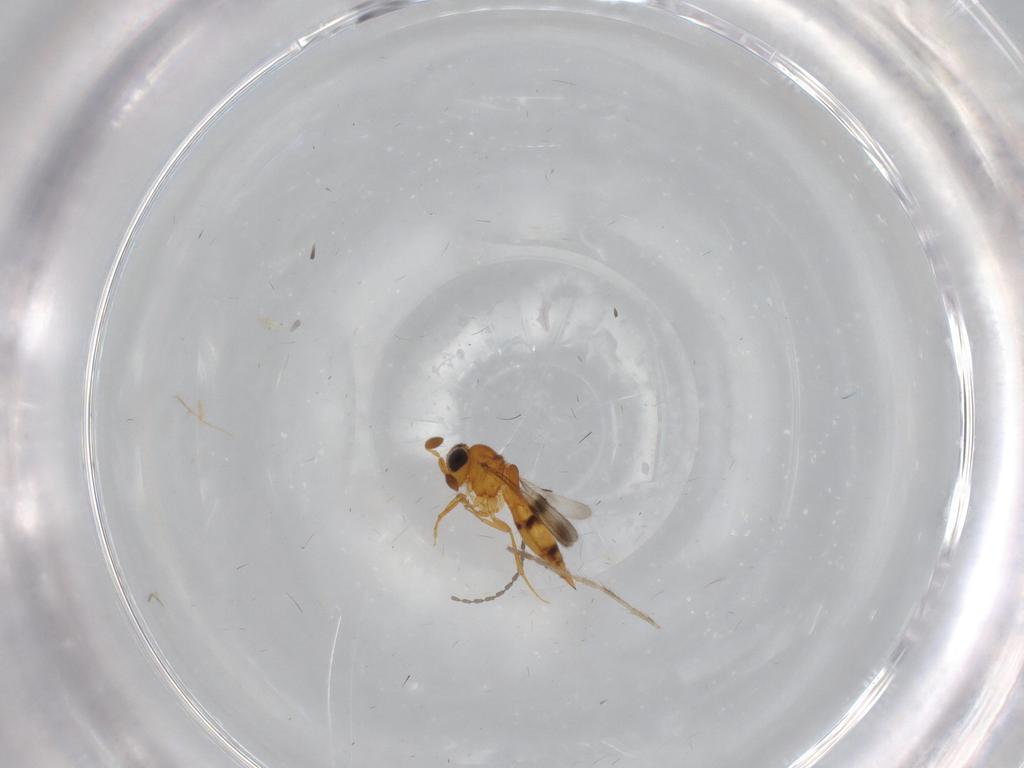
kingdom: Animalia
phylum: Arthropoda
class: Insecta
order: Hymenoptera
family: Scelionidae
